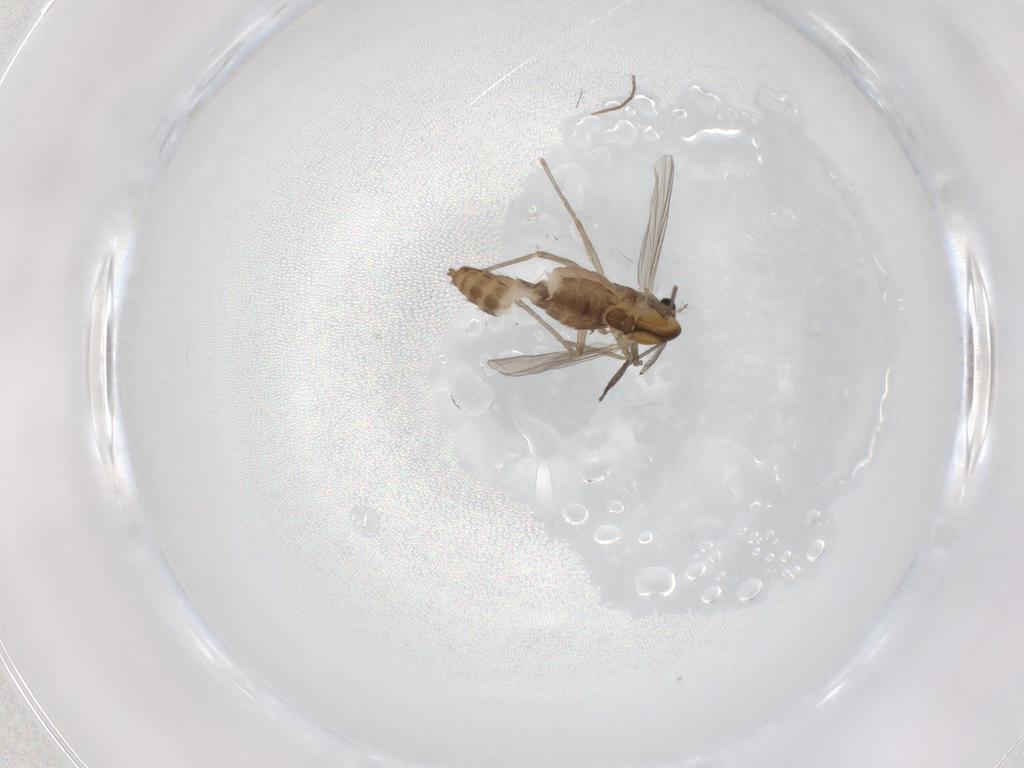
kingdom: Animalia
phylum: Arthropoda
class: Insecta
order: Diptera
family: Chironomidae
